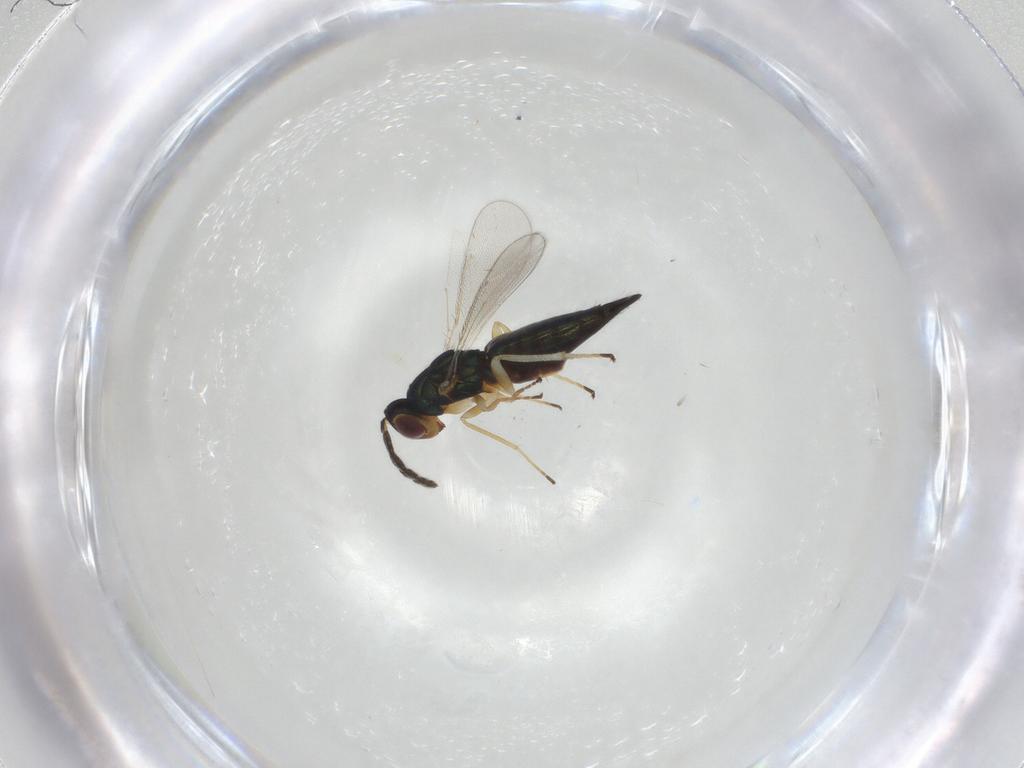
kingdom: Animalia
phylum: Arthropoda
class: Insecta
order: Hymenoptera
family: Eulophidae
